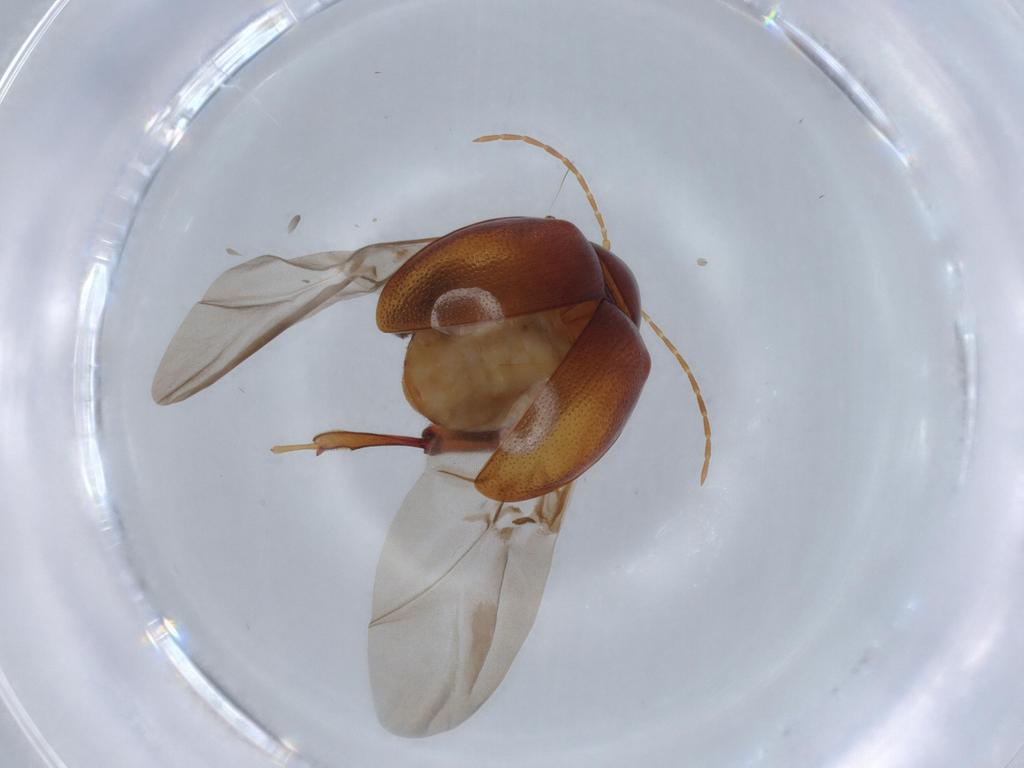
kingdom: Animalia
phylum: Arthropoda
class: Insecta
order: Coleoptera
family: Chrysomelidae
